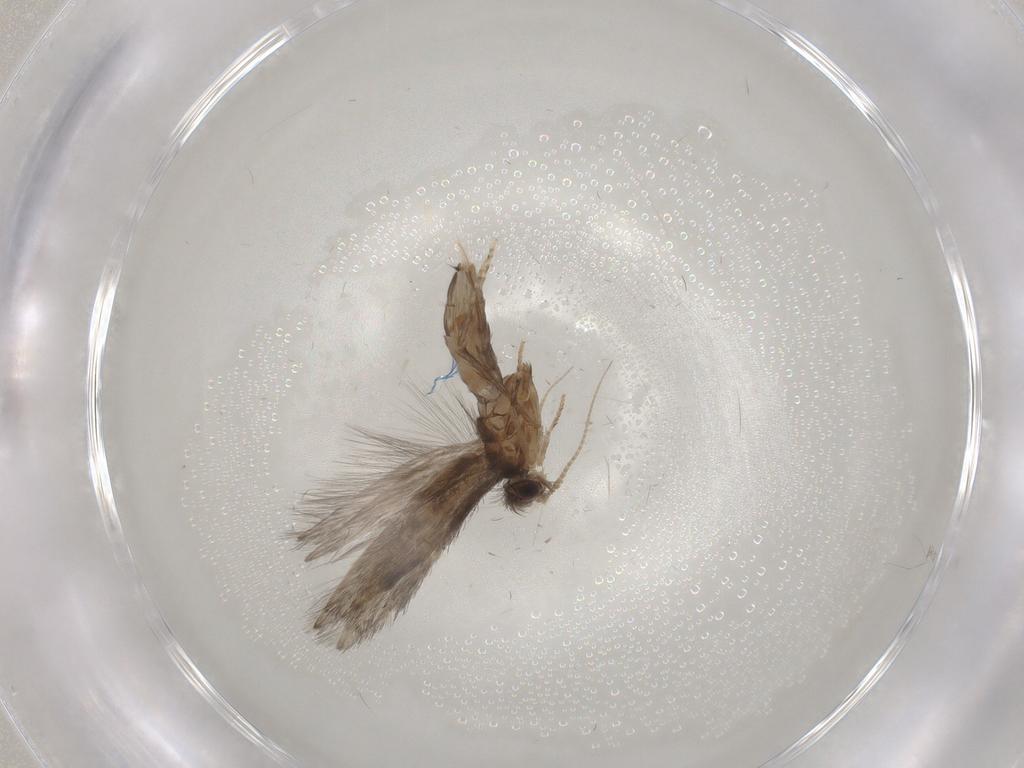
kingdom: Animalia
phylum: Arthropoda
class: Insecta
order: Trichoptera
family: Hydroptilidae
